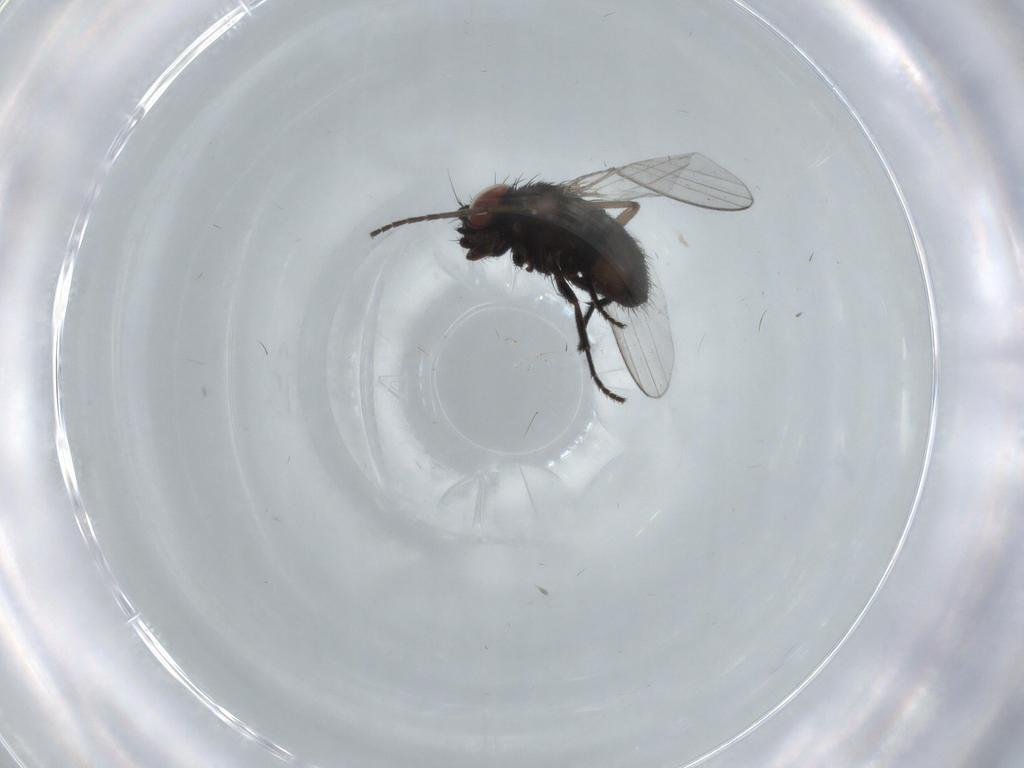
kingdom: Animalia
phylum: Arthropoda
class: Insecta
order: Diptera
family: Milichiidae
